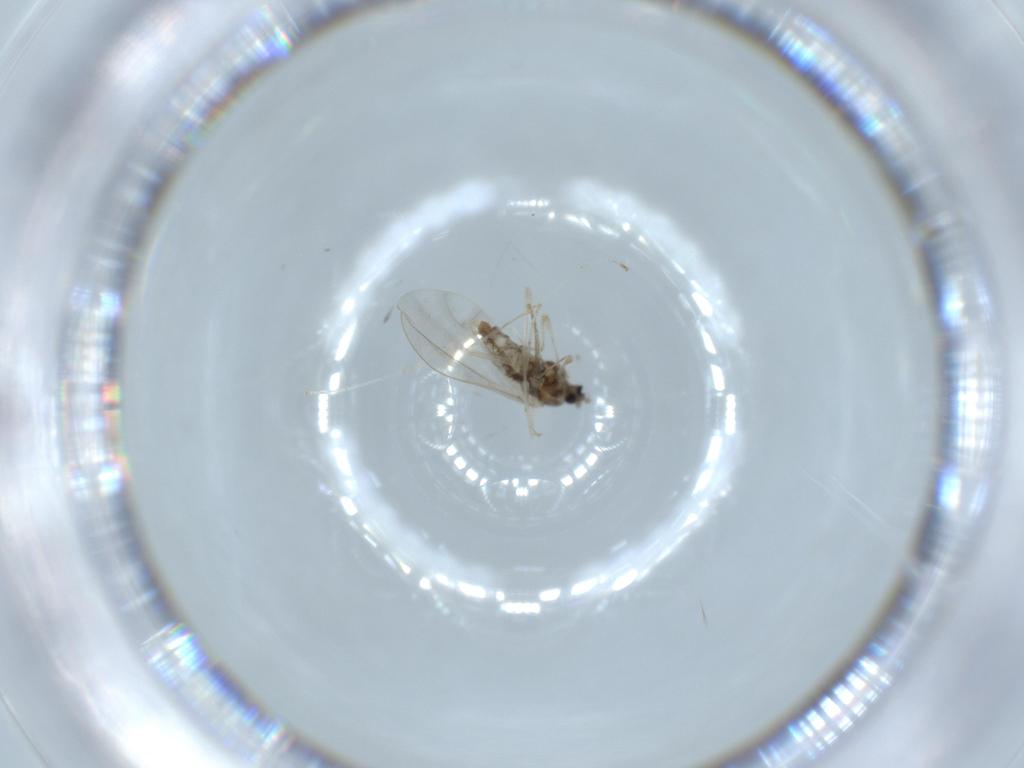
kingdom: Animalia
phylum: Arthropoda
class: Insecta
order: Diptera
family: Cecidomyiidae
